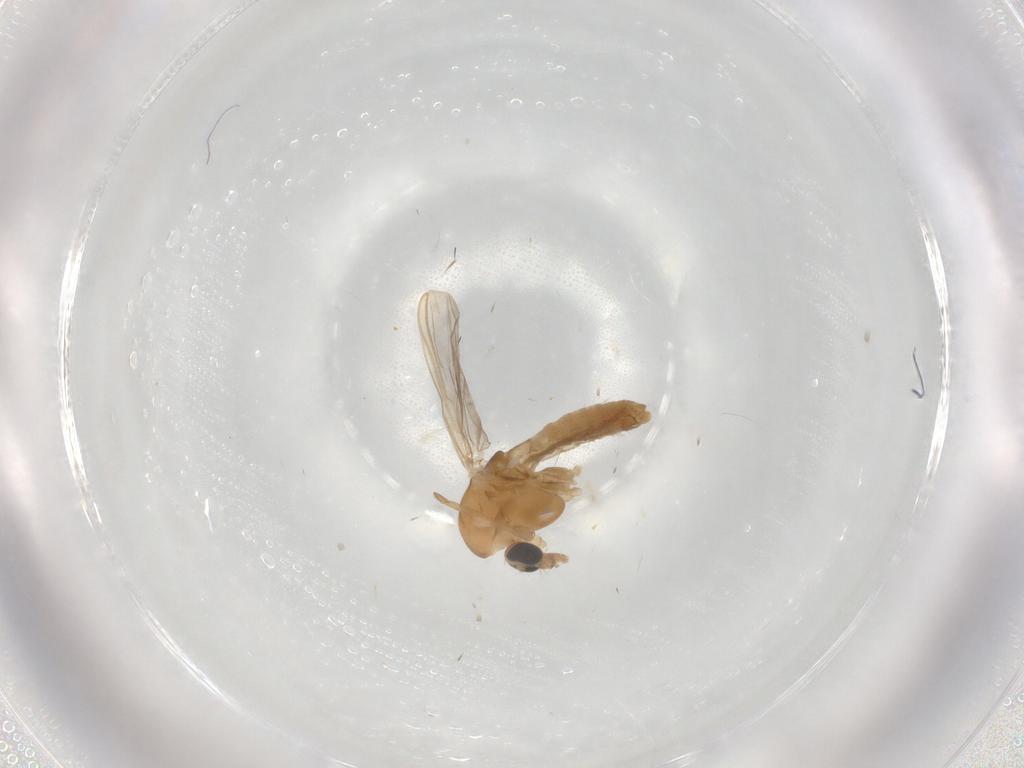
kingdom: Animalia
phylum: Arthropoda
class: Insecta
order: Diptera
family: Chironomidae
